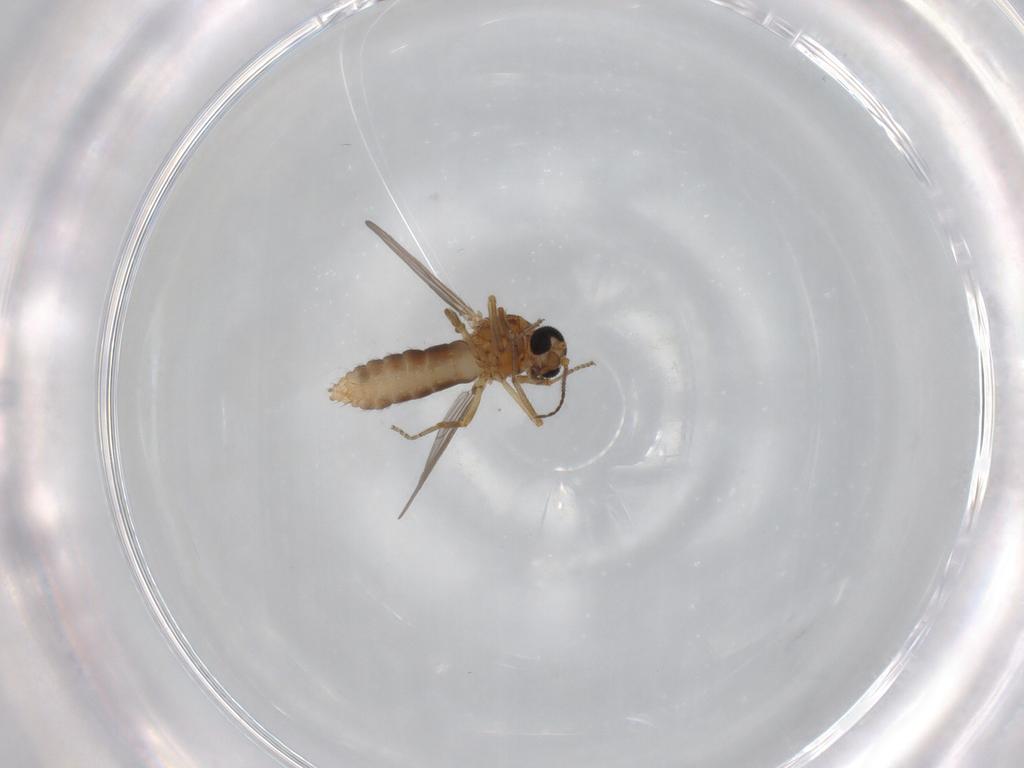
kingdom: Animalia
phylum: Arthropoda
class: Insecta
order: Diptera
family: Ceratopogonidae
